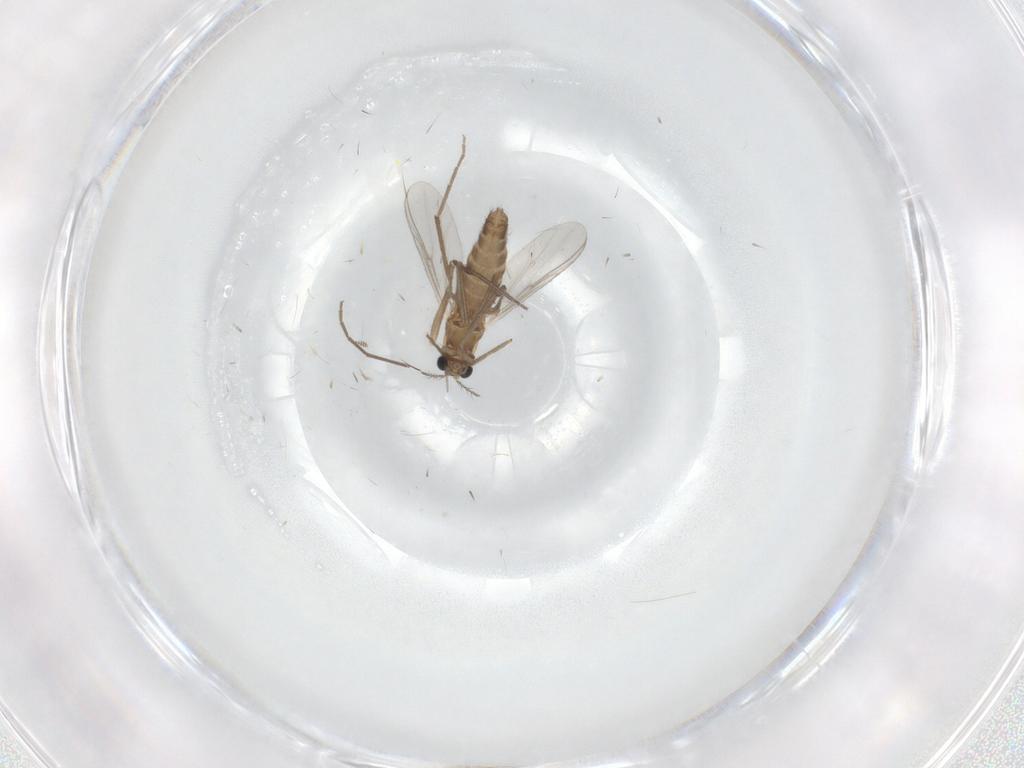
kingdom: Animalia
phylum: Arthropoda
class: Insecta
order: Diptera
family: Chironomidae
